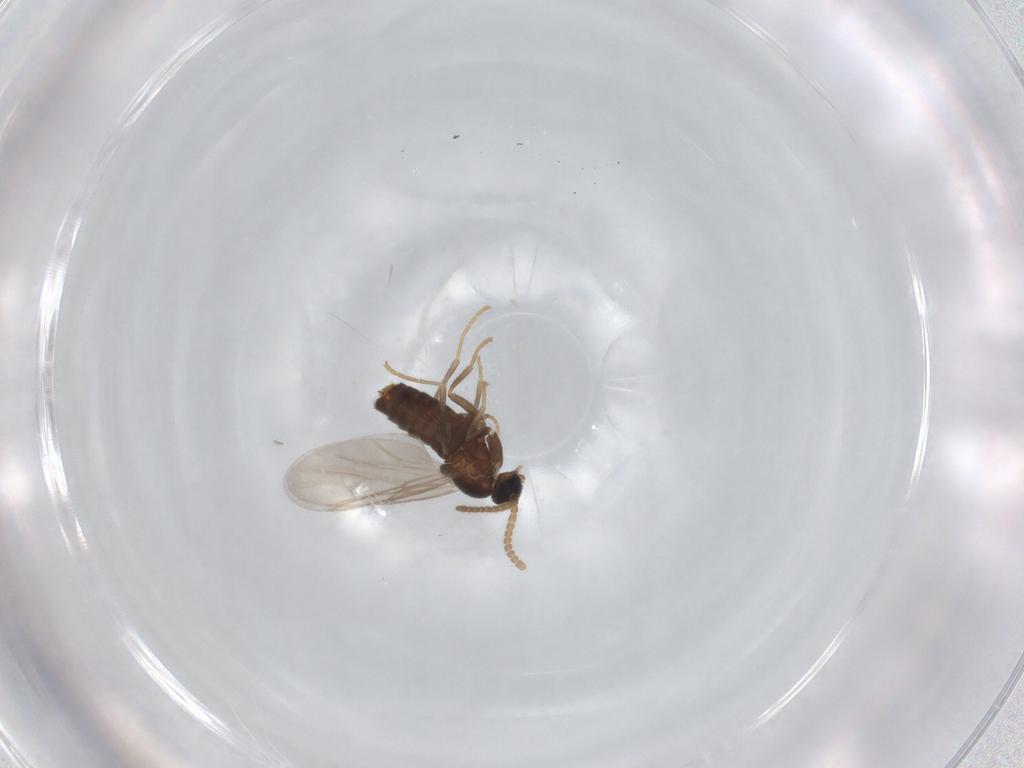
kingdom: Animalia
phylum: Arthropoda
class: Insecta
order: Diptera
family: Scatopsidae
